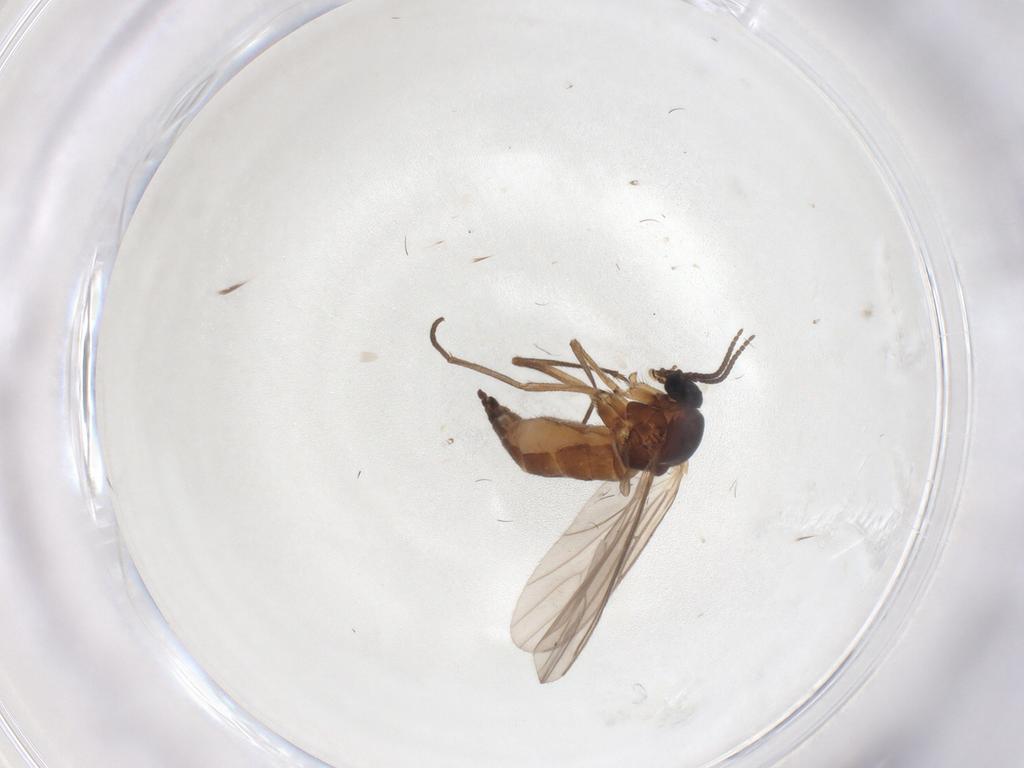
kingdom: Animalia
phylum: Arthropoda
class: Insecta
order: Diptera
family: Sciaridae
